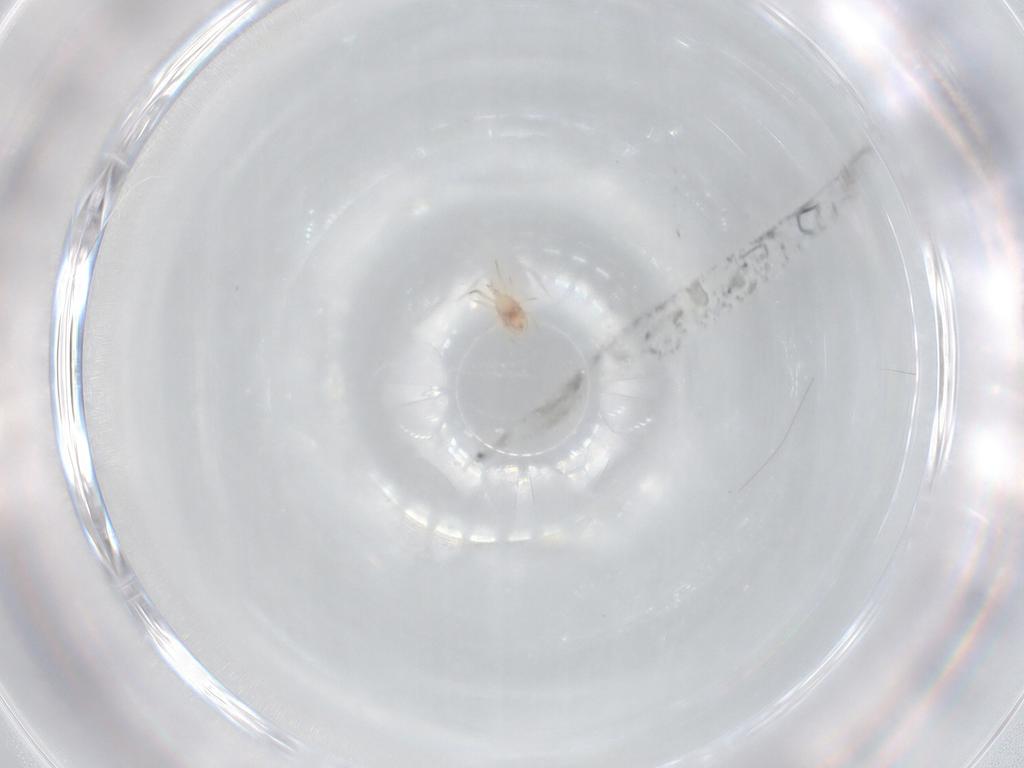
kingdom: Animalia
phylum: Arthropoda
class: Arachnida
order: Mesostigmata
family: Phytoseiidae
